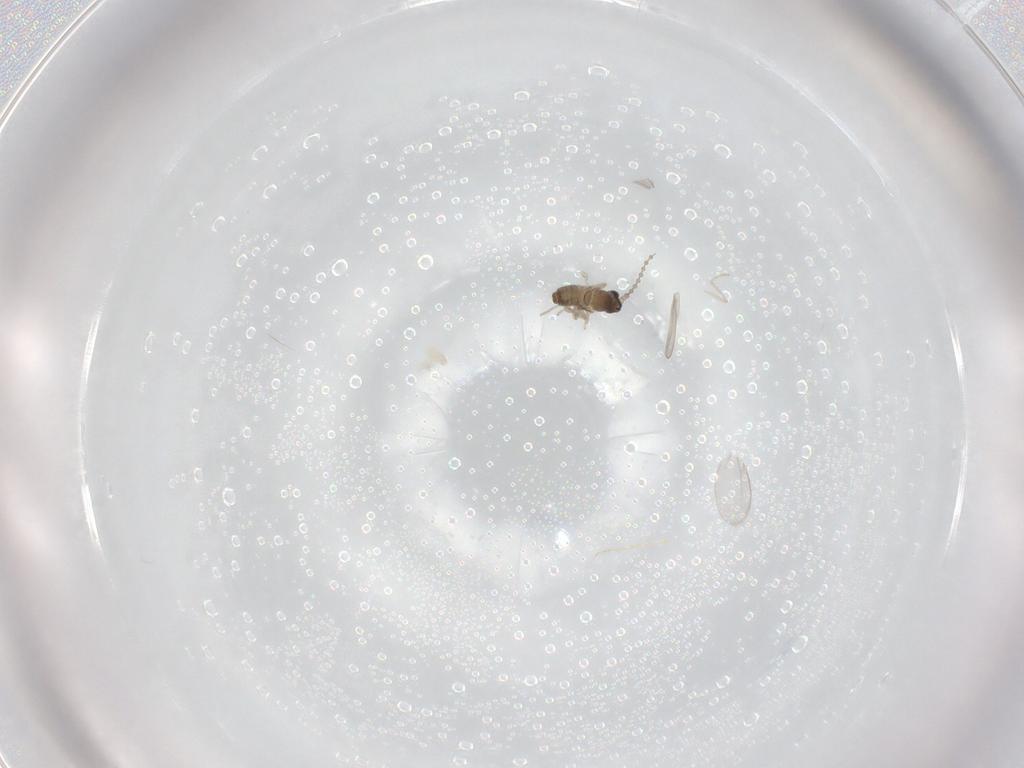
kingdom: Animalia
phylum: Arthropoda
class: Insecta
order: Diptera
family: Cecidomyiidae
